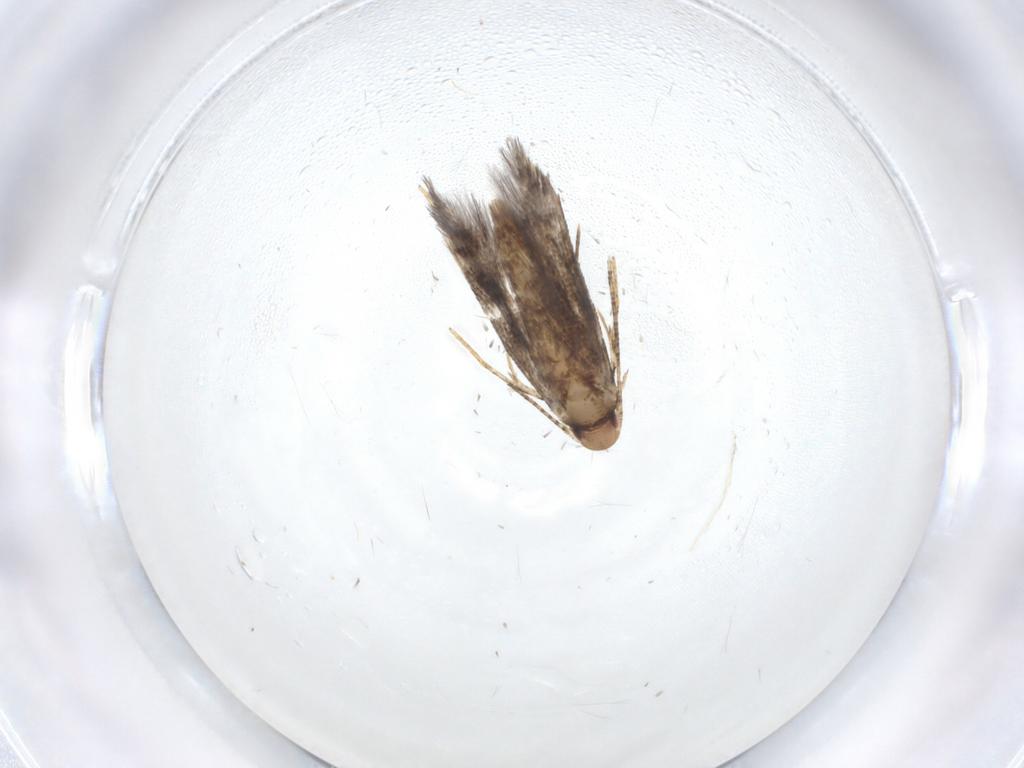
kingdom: Animalia
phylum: Arthropoda
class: Insecta
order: Lepidoptera
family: Momphidae
